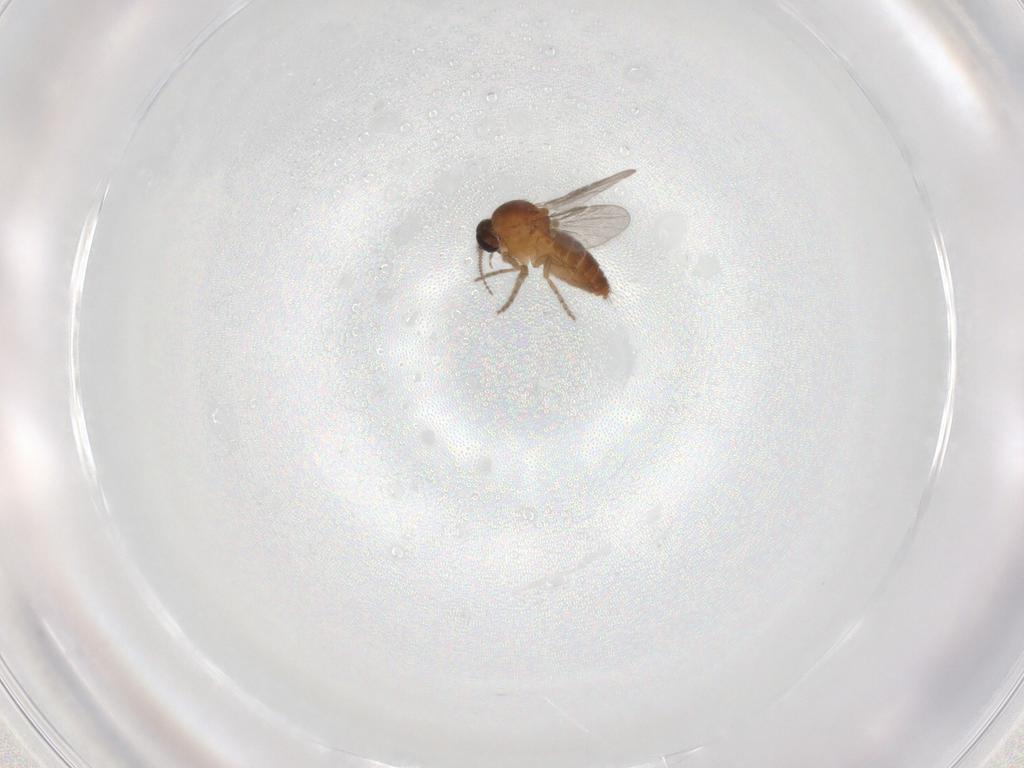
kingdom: Animalia
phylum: Arthropoda
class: Insecta
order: Diptera
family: Ceratopogonidae
